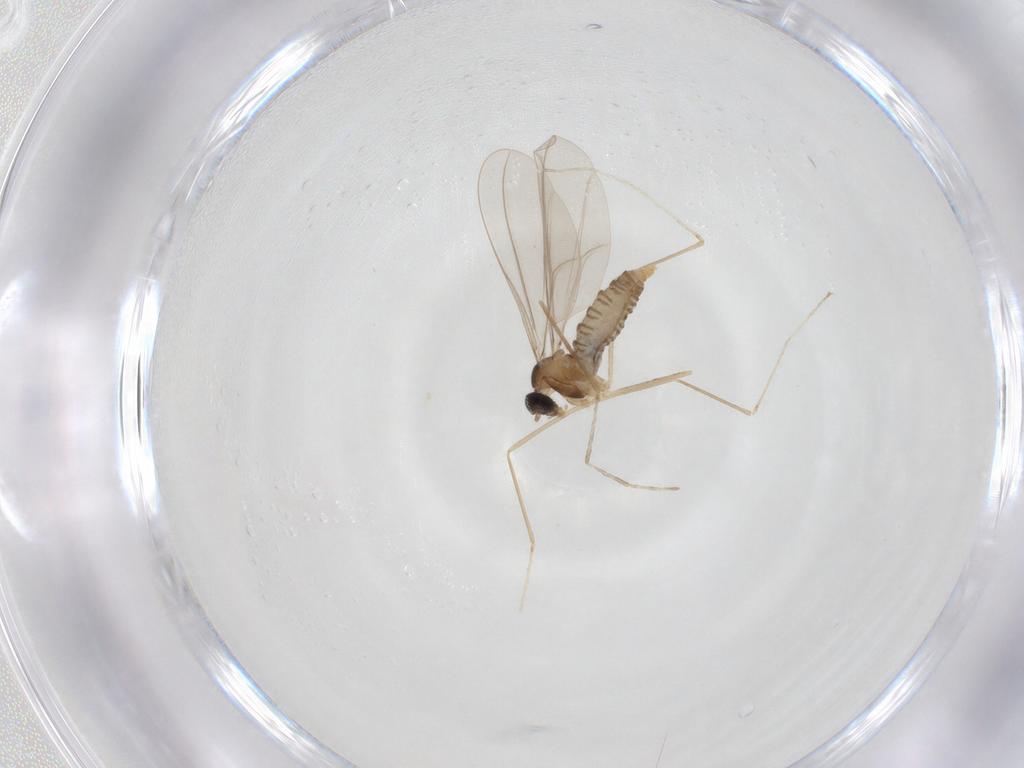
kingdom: Animalia
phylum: Arthropoda
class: Insecta
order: Diptera
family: Cecidomyiidae
